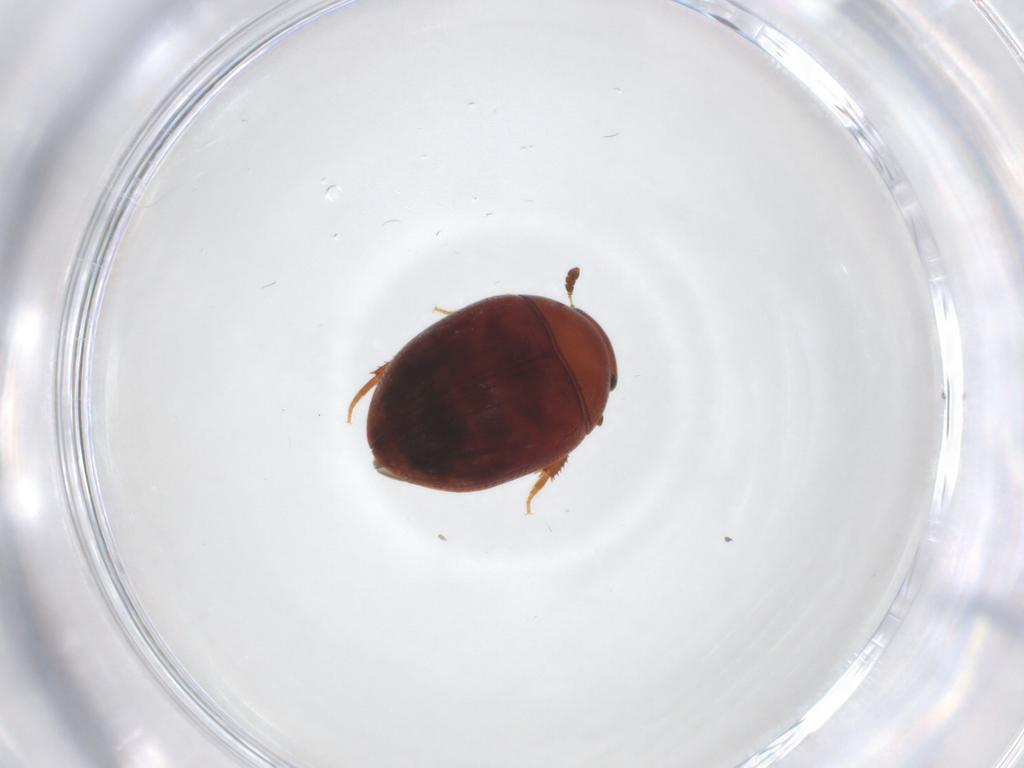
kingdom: Animalia
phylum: Arthropoda
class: Insecta
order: Coleoptera
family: Hydrophilidae
